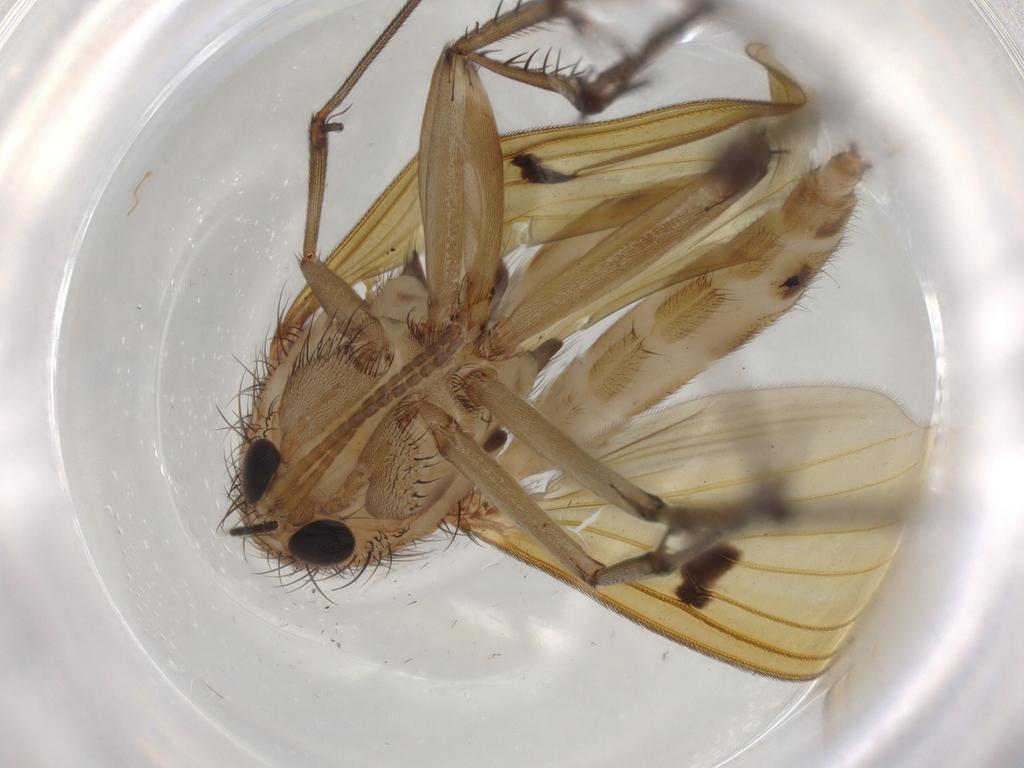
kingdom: Animalia
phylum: Arthropoda
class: Insecta
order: Diptera
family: Mycetophilidae
